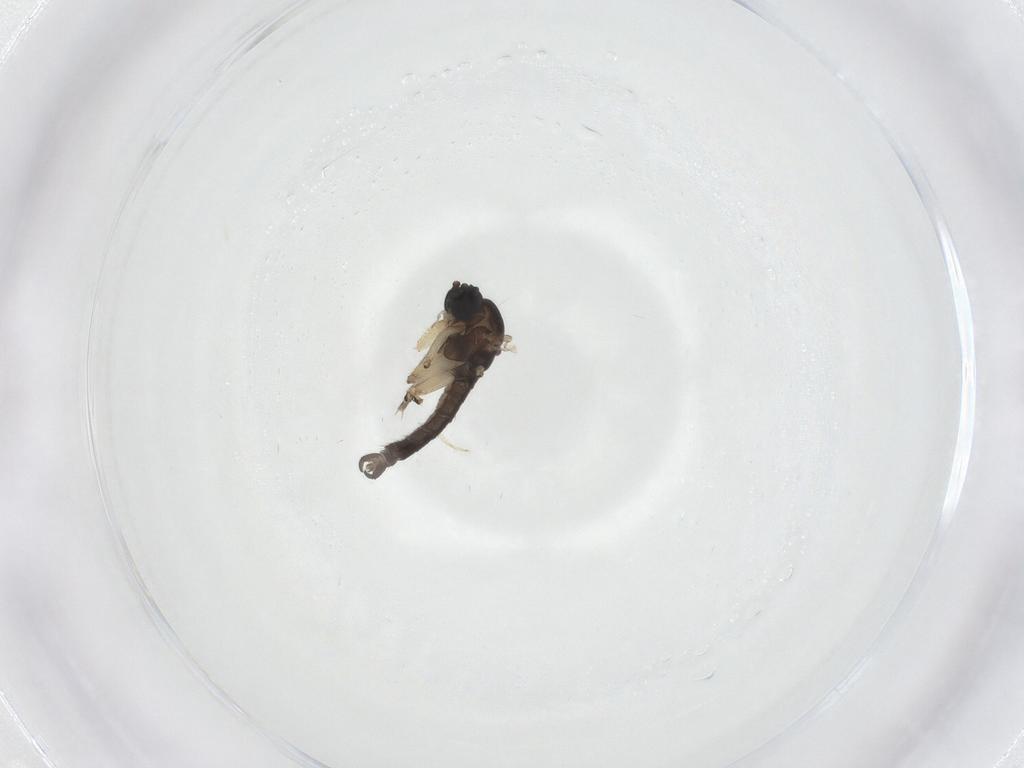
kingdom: Animalia
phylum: Arthropoda
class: Insecta
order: Diptera
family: Sciaridae
